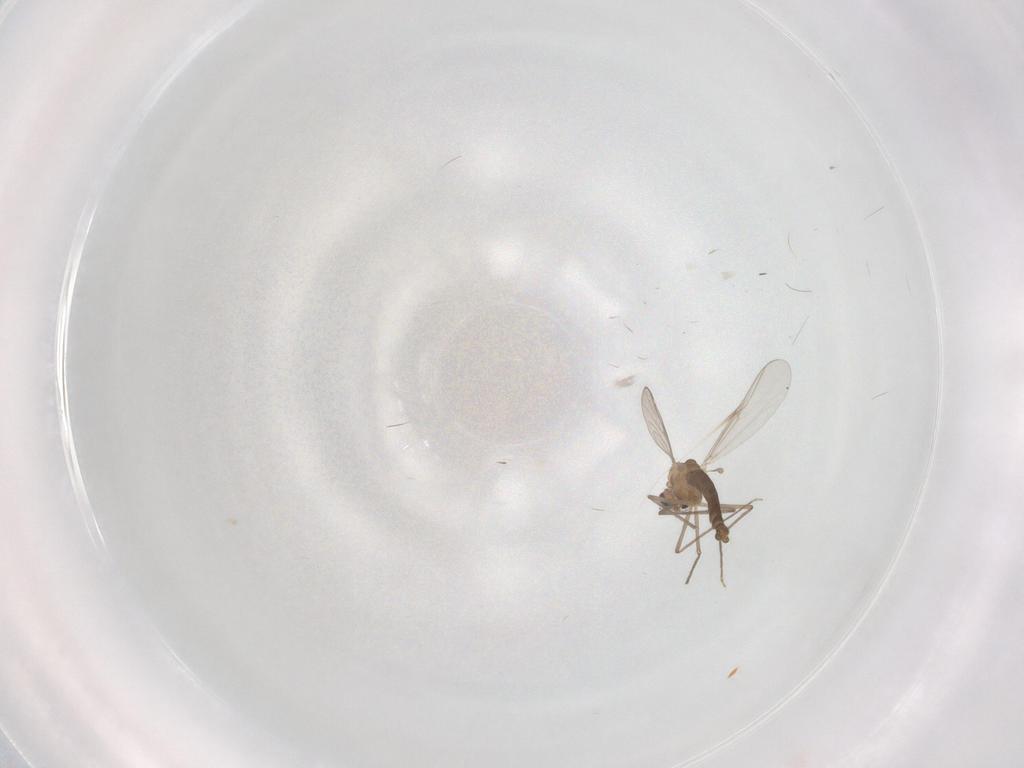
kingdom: Animalia
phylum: Arthropoda
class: Insecta
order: Diptera
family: Chironomidae
